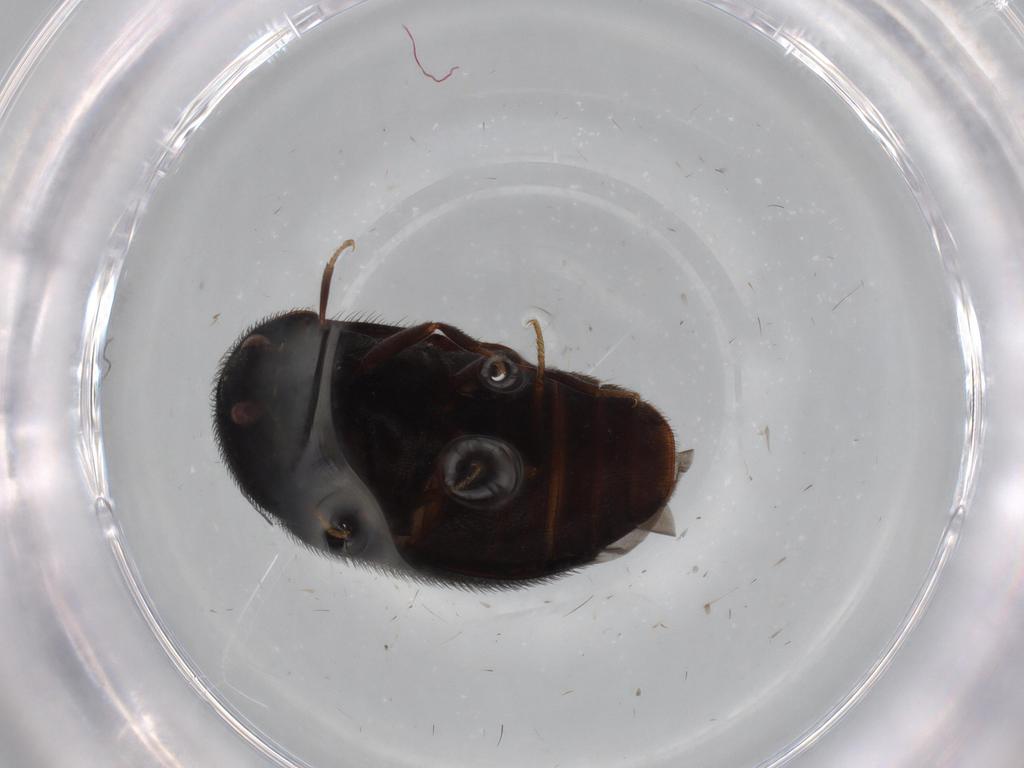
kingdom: Animalia
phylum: Arthropoda
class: Insecta
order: Coleoptera
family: Dermestidae
